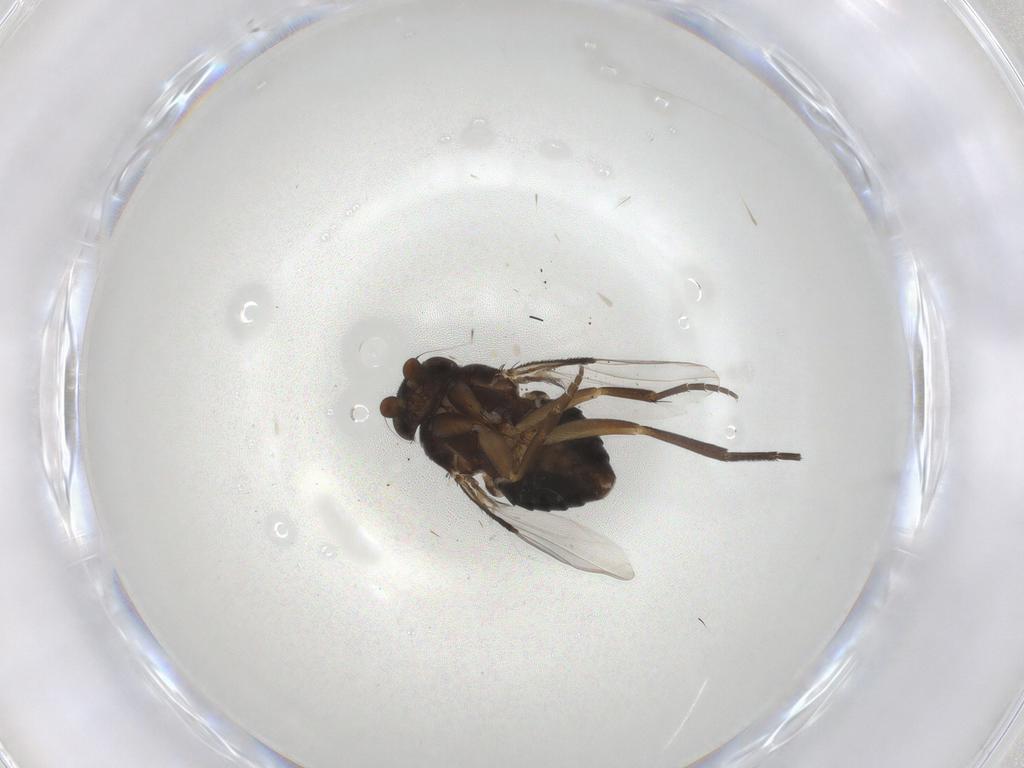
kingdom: Animalia
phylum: Arthropoda
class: Insecta
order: Diptera
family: Phoridae
